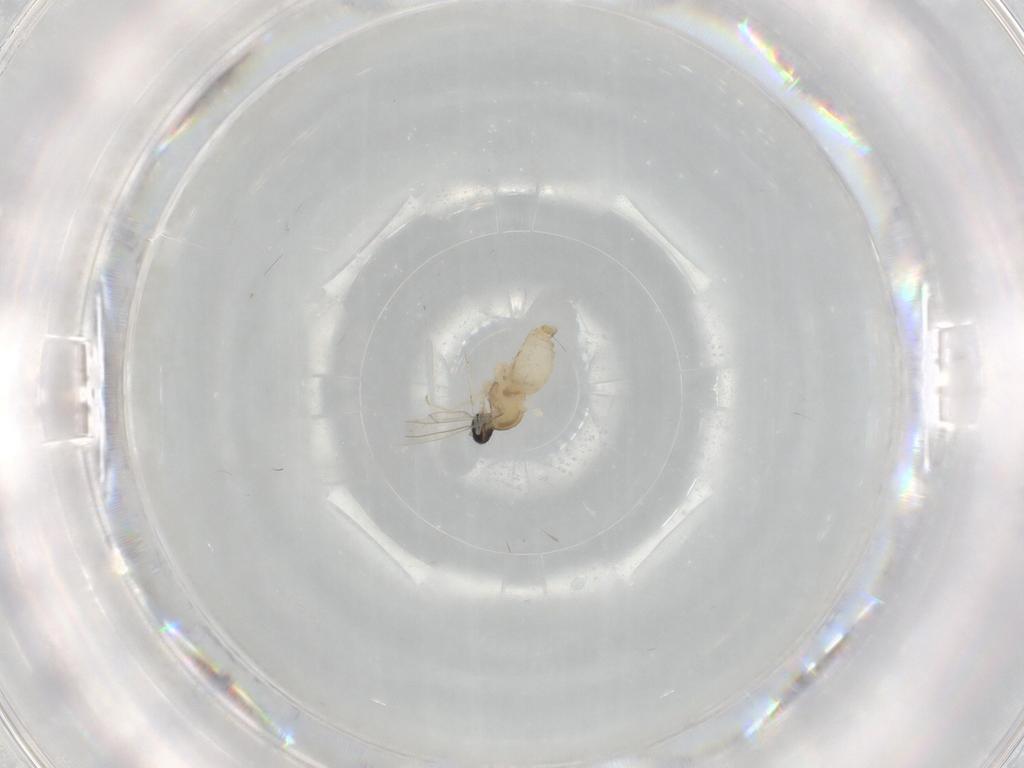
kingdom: Animalia
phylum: Arthropoda
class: Insecta
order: Diptera
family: Cecidomyiidae
